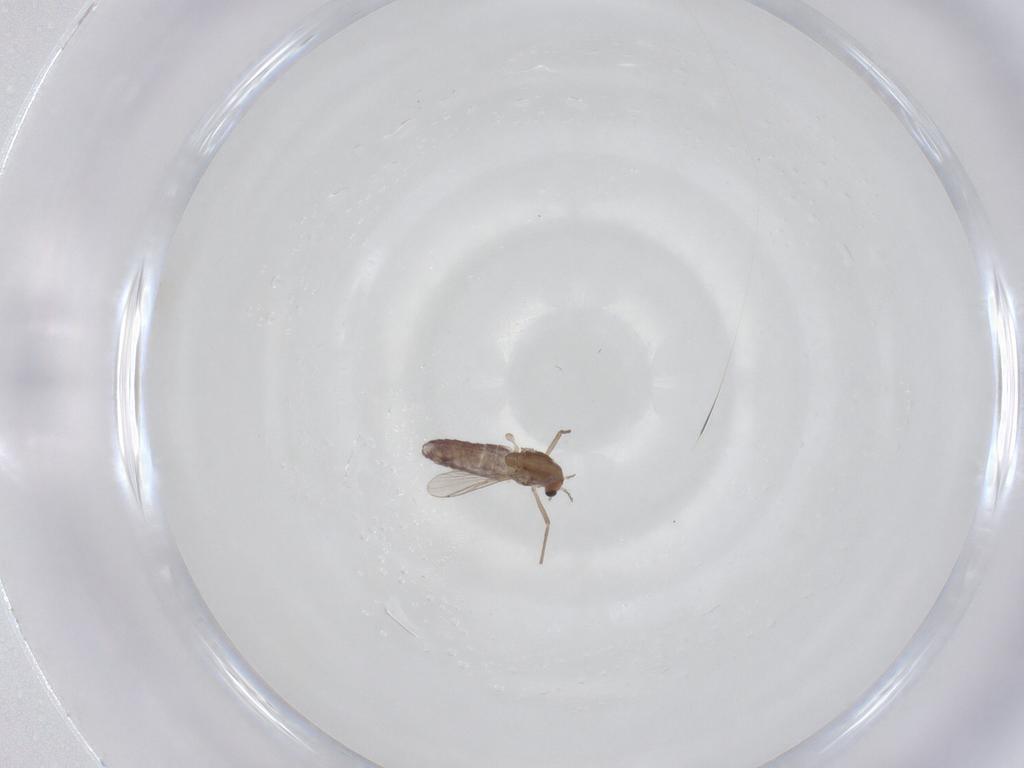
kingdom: Animalia
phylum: Arthropoda
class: Insecta
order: Diptera
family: Chironomidae
